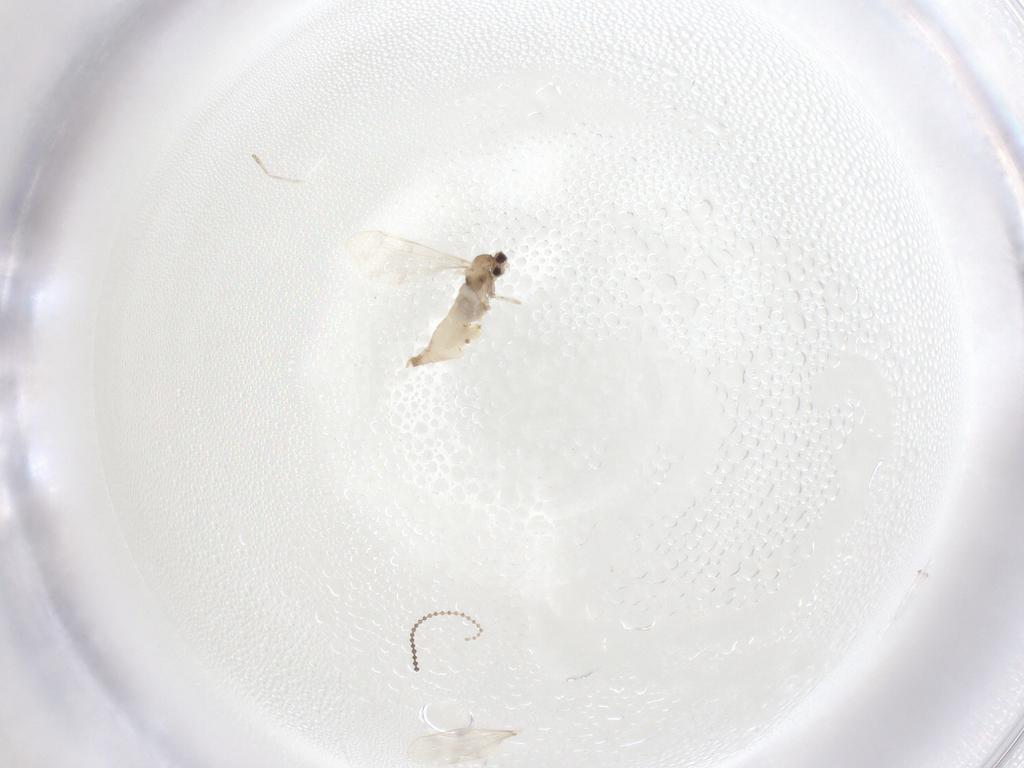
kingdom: Animalia
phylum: Arthropoda
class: Insecta
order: Diptera
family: Cecidomyiidae
